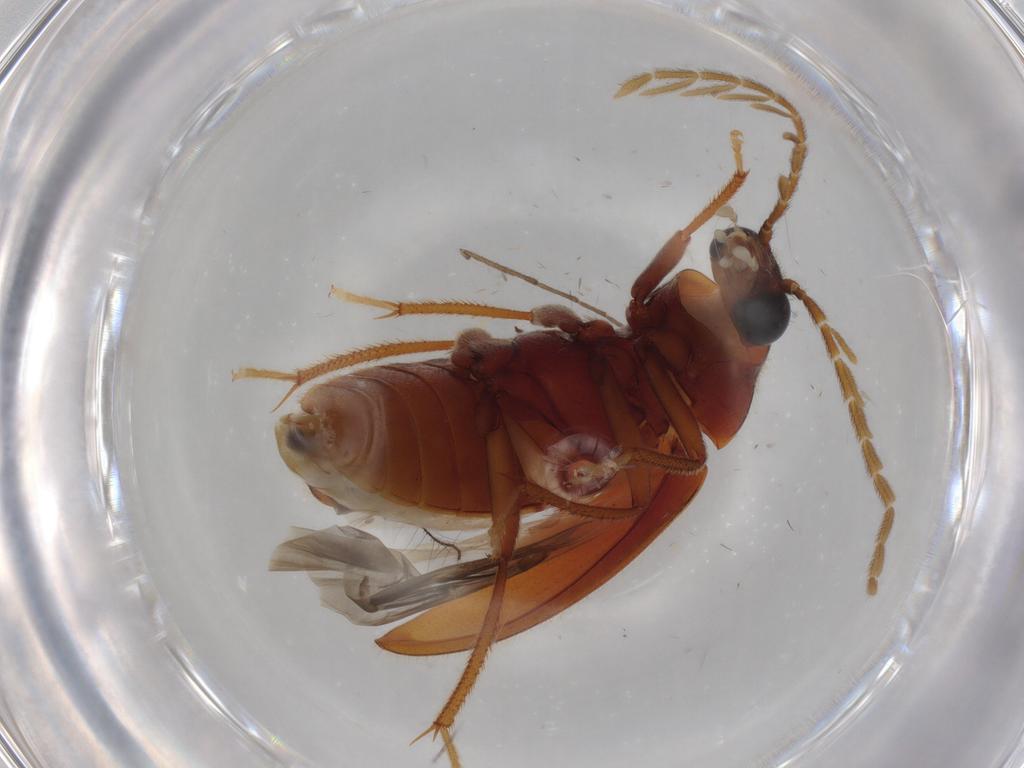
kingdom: Animalia
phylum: Arthropoda
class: Insecta
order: Coleoptera
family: Ptilodactylidae
